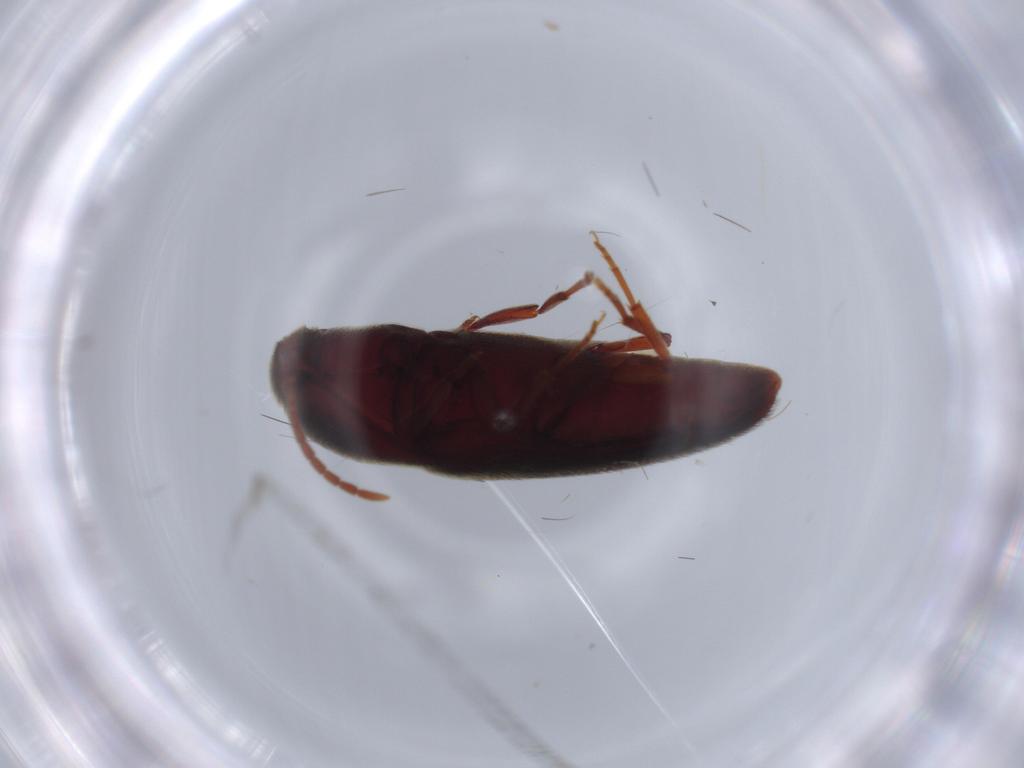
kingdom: Animalia
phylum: Arthropoda
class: Insecta
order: Coleoptera
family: Eucnemidae
